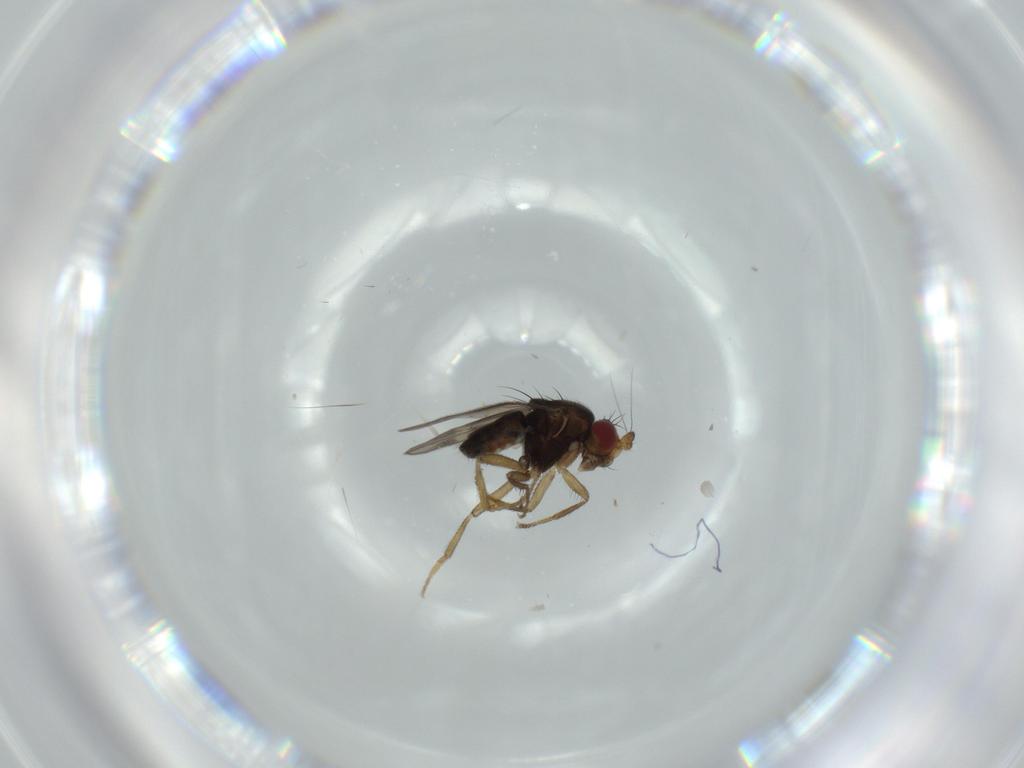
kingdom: Animalia
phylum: Arthropoda
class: Insecta
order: Diptera
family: Sphaeroceridae
